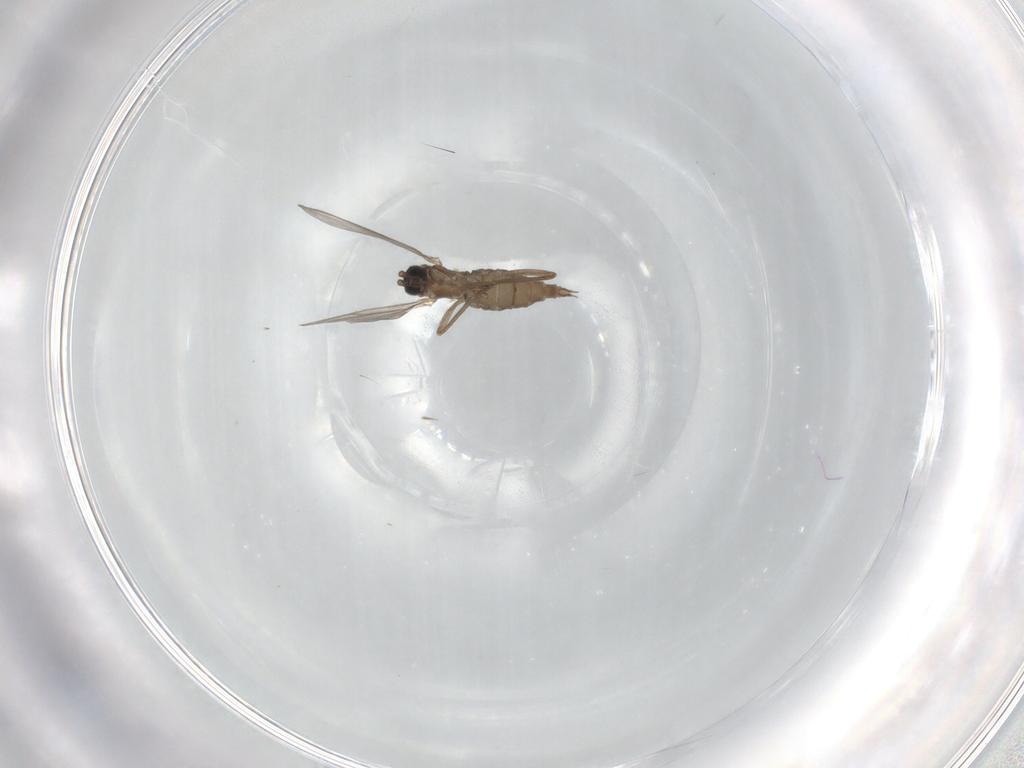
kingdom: Animalia
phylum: Arthropoda
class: Insecta
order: Diptera
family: Sciaridae
